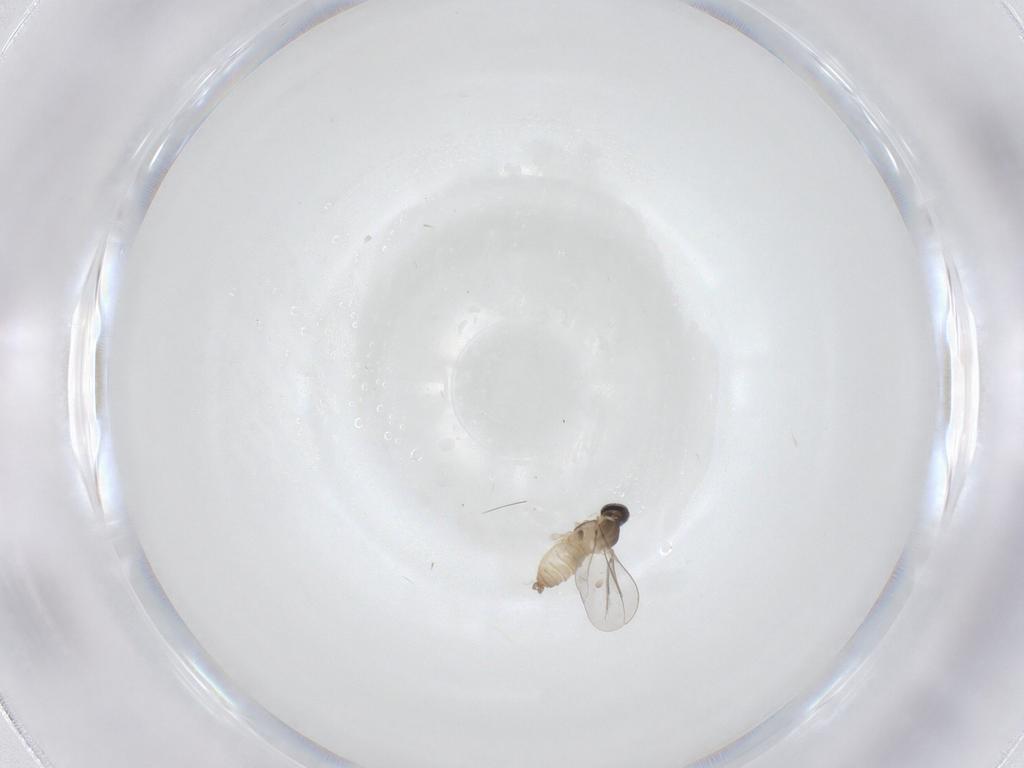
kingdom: Animalia
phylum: Arthropoda
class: Insecta
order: Diptera
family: Cecidomyiidae
